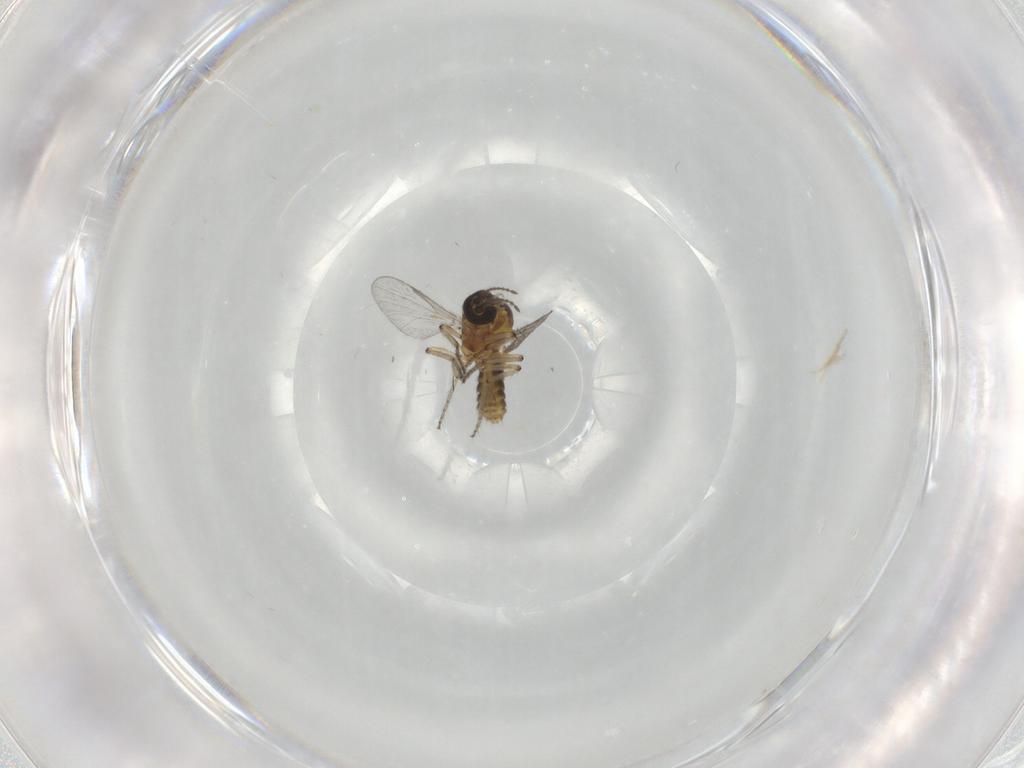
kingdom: Animalia
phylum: Arthropoda
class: Insecta
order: Diptera
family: Ceratopogonidae
